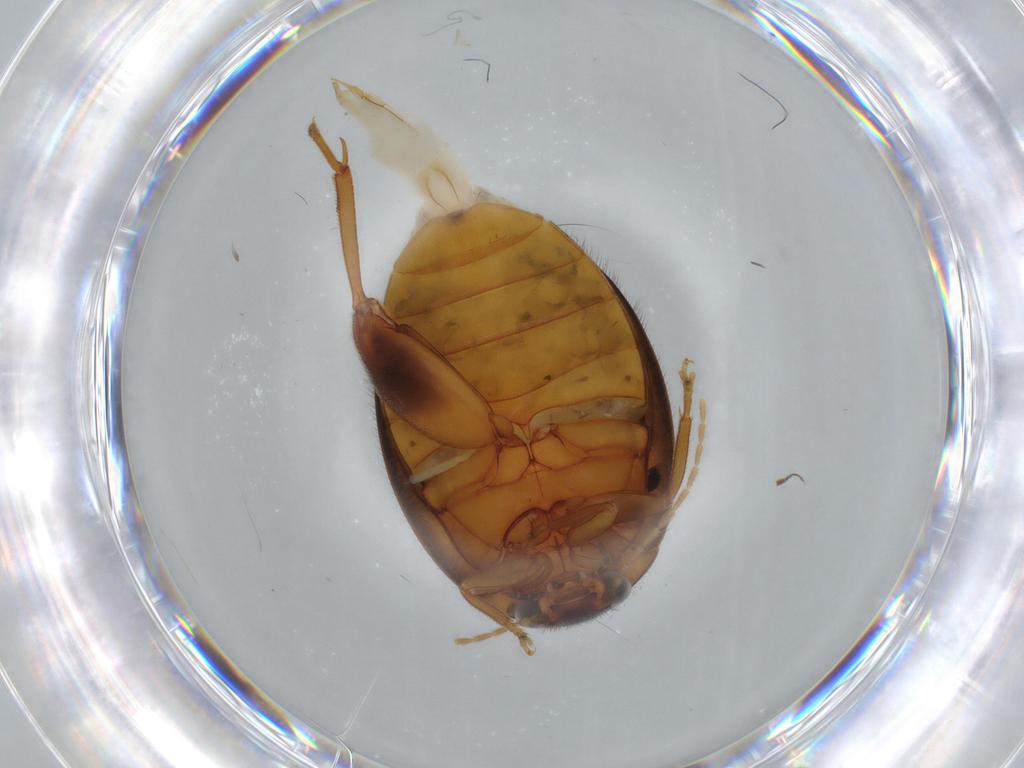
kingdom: Animalia
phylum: Arthropoda
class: Insecta
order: Coleoptera
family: Scirtidae
